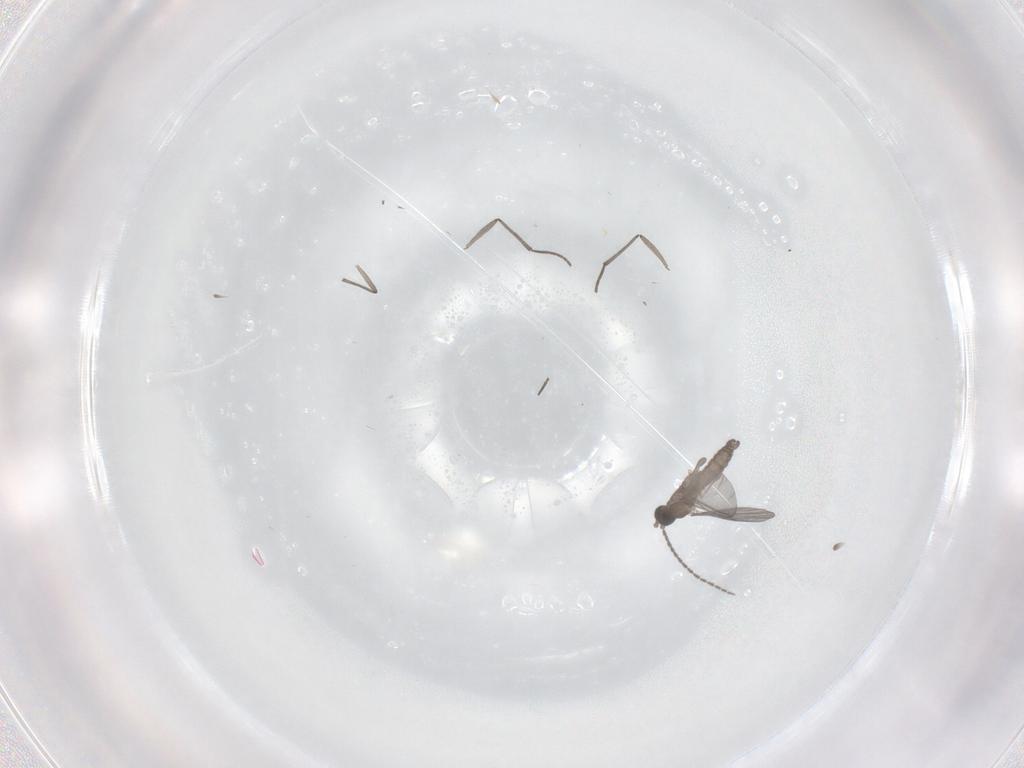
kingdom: Animalia
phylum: Arthropoda
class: Insecta
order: Diptera
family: Sciaridae
